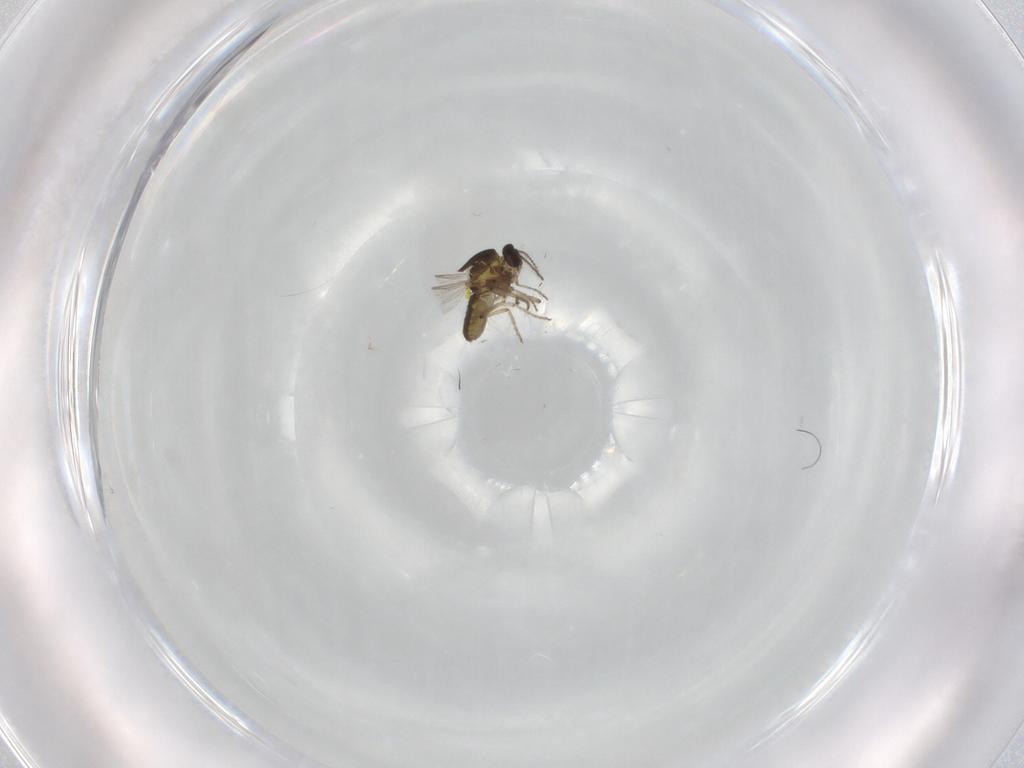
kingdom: Animalia
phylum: Arthropoda
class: Insecta
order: Diptera
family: Ceratopogonidae
